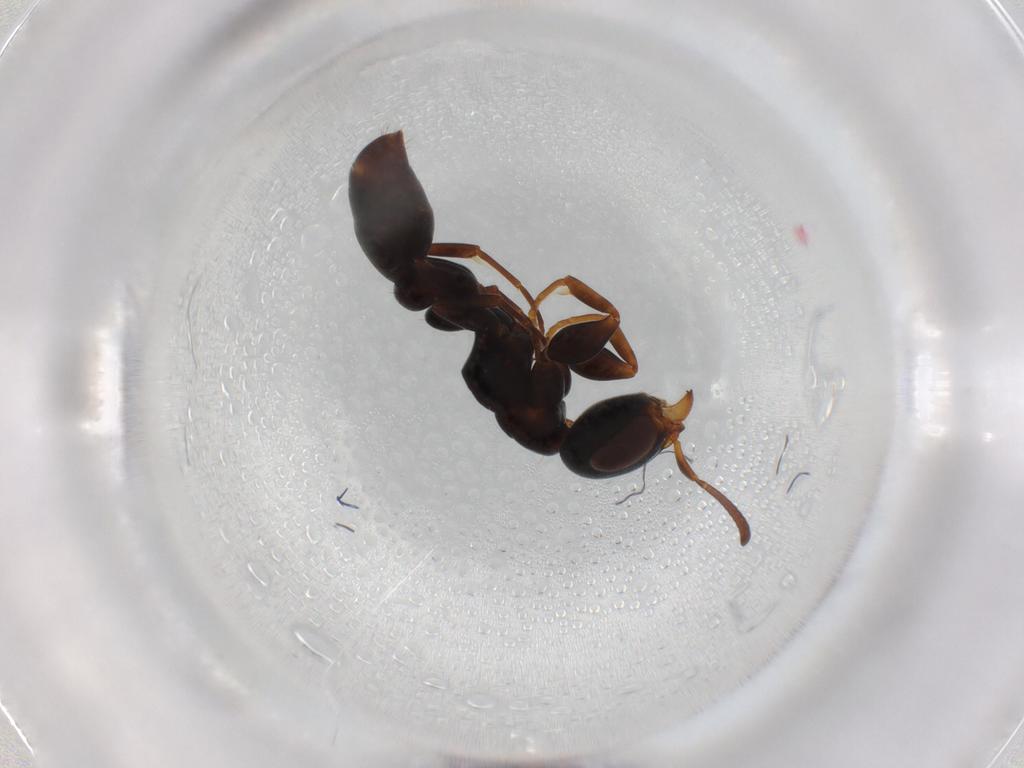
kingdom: Animalia
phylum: Arthropoda
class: Insecta
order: Hymenoptera
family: Formicidae
